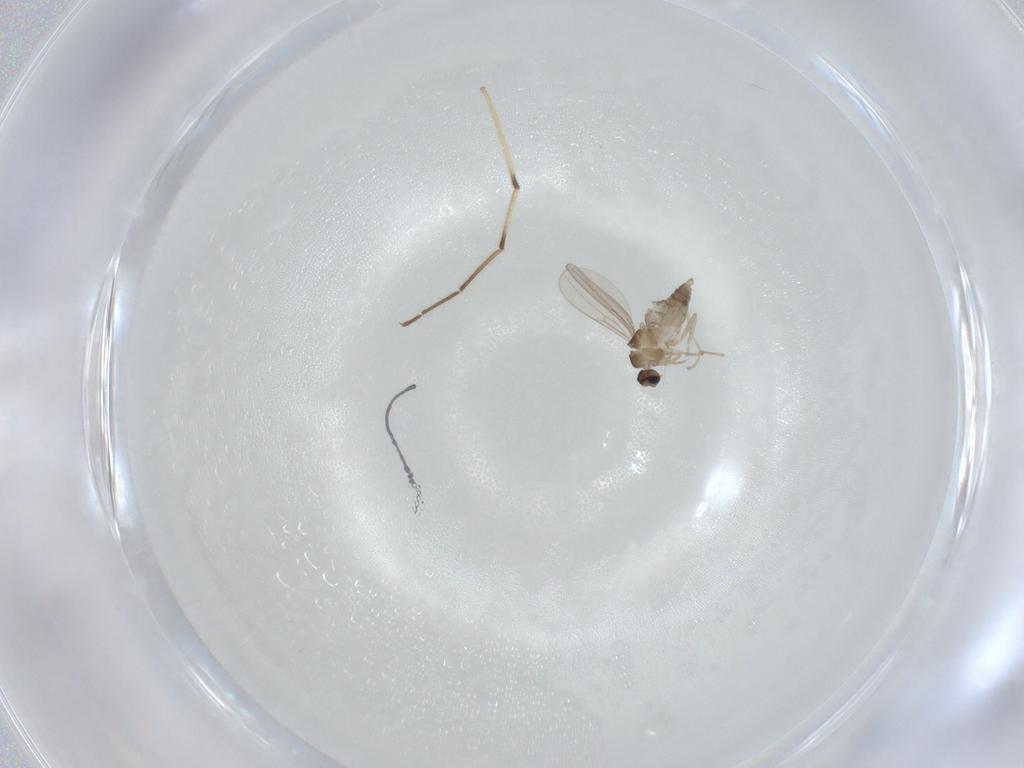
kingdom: Animalia
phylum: Arthropoda
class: Insecta
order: Diptera
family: Cecidomyiidae
